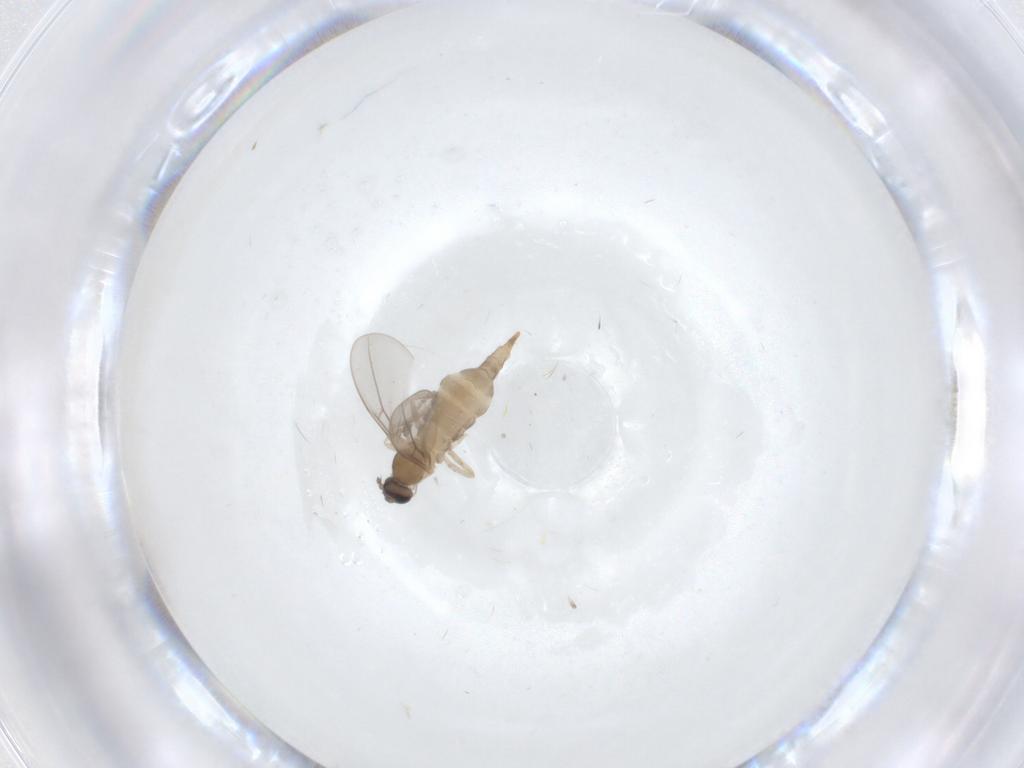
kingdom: Animalia
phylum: Arthropoda
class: Insecta
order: Diptera
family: Cecidomyiidae
